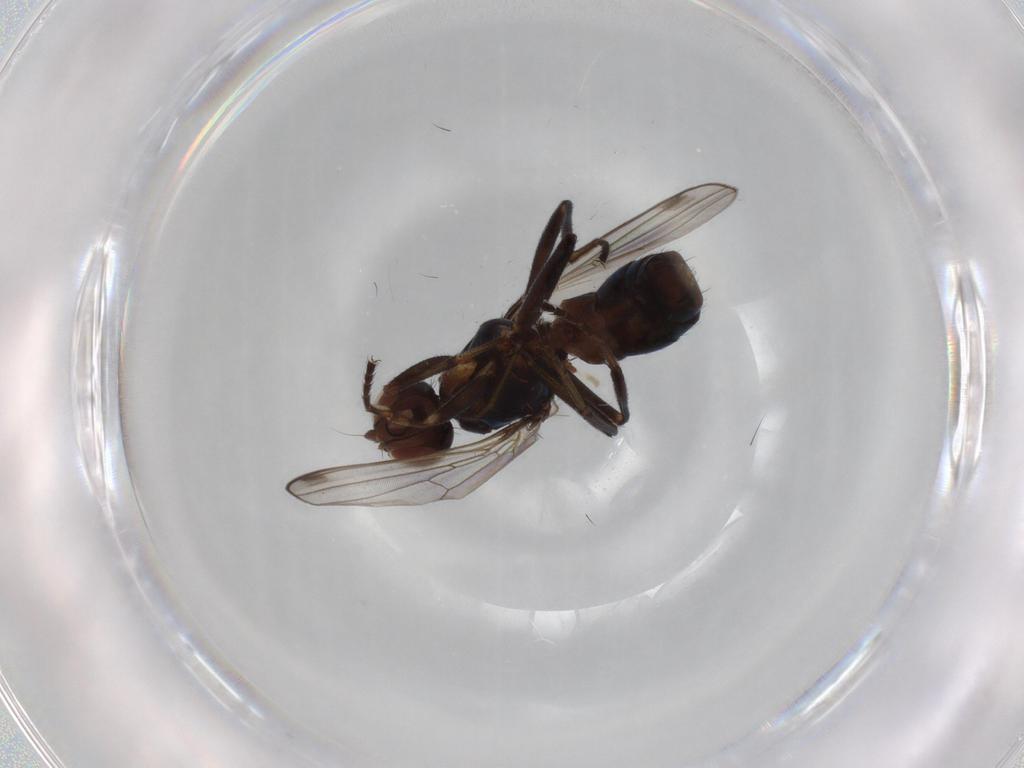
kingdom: Animalia
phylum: Arthropoda
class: Insecta
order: Diptera
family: Sepsidae
